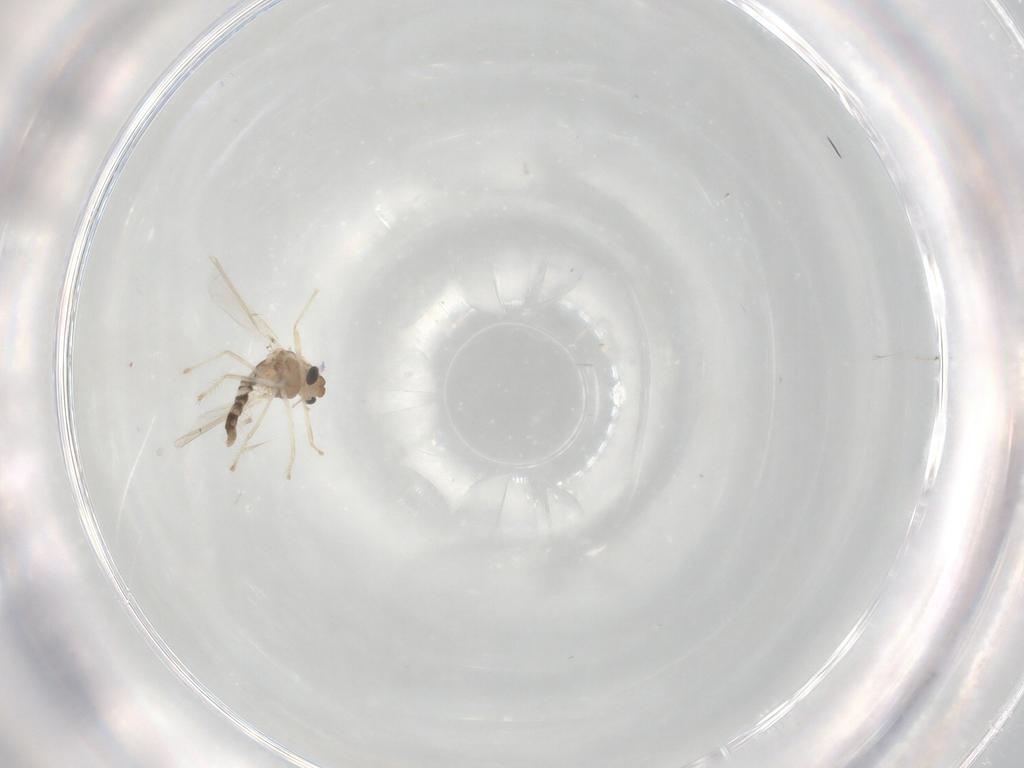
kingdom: Animalia
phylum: Arthropoda
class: Insecta
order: Diptera
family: Chironomidae
